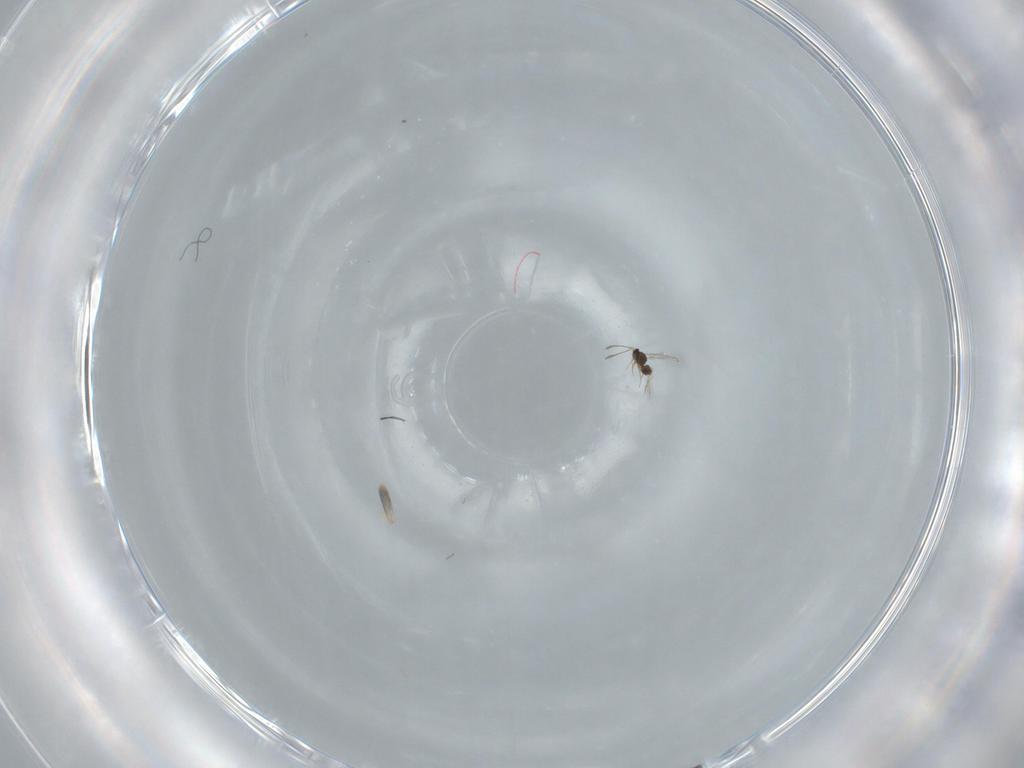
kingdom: Animalia
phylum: Arthropoda
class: Insecta
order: Hymenoptera
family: Mymaridae
